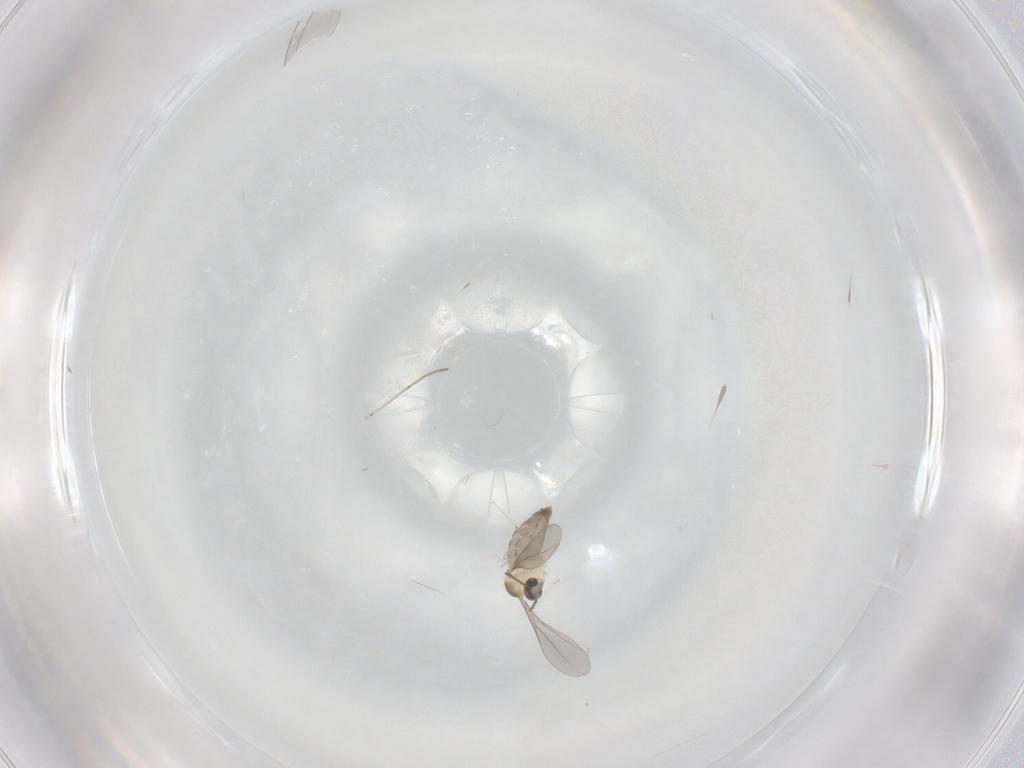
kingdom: Animalia
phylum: Arthropoda
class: Insecta
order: Diptera
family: Cecidomyiidae
